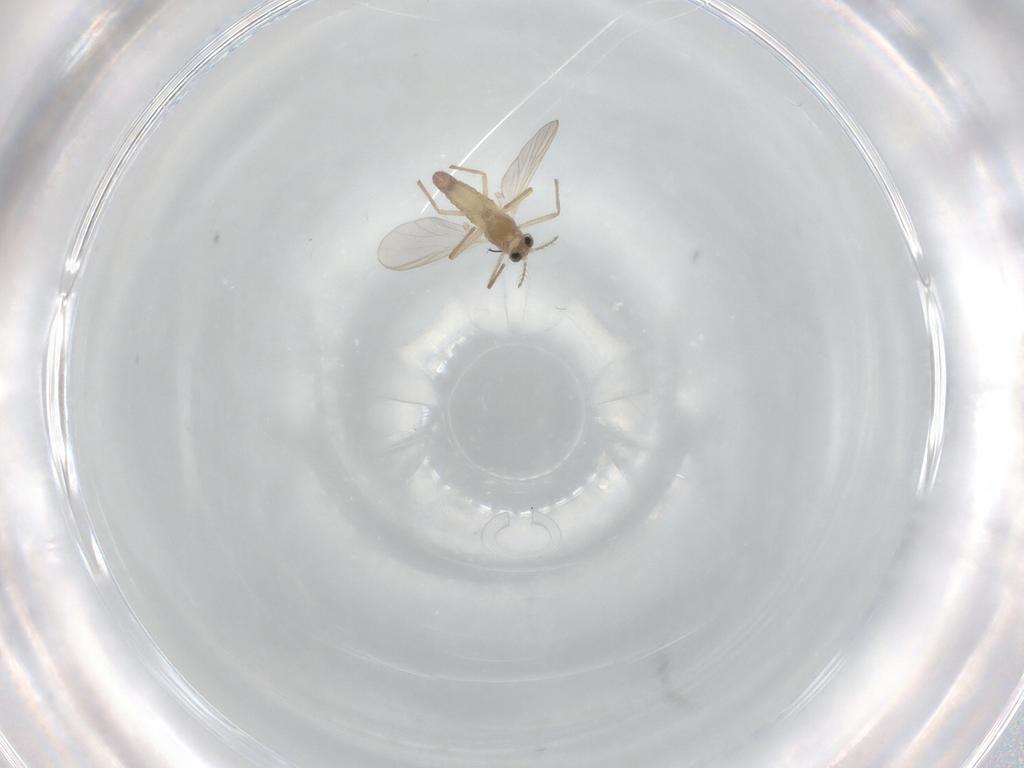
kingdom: Animalia
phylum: Arthropoda
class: Insecta
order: Diptera
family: Chironomidae
